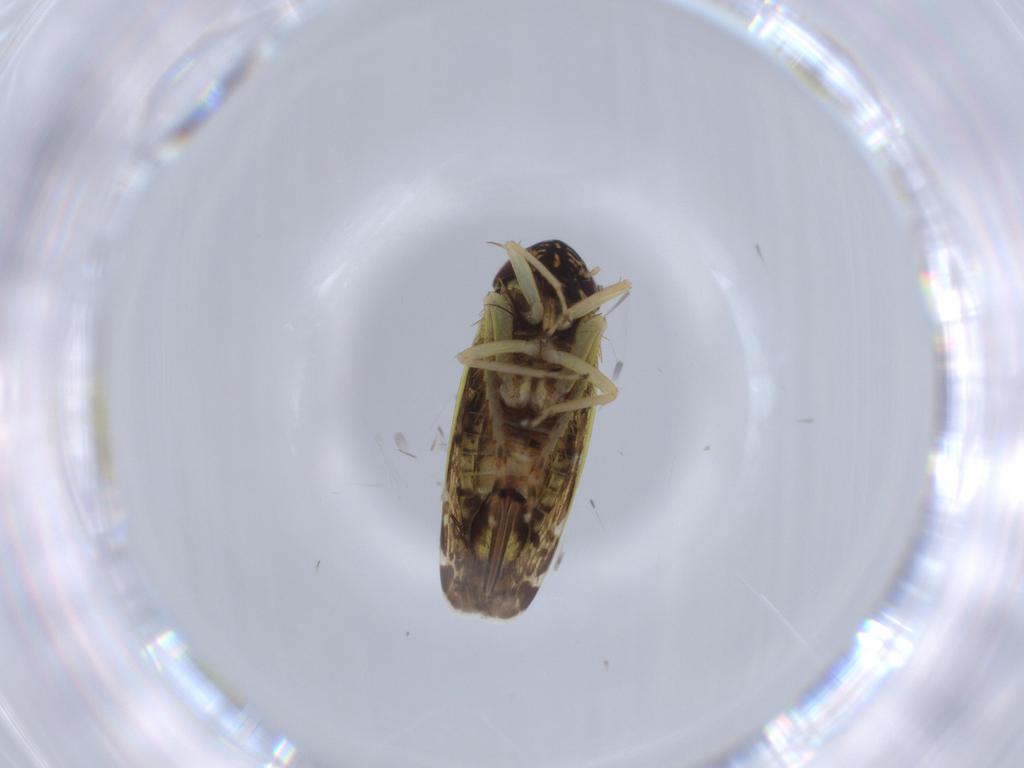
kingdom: Animalia
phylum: Arthropoda
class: Insecta
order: Hemiptera
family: Cicadellidae
